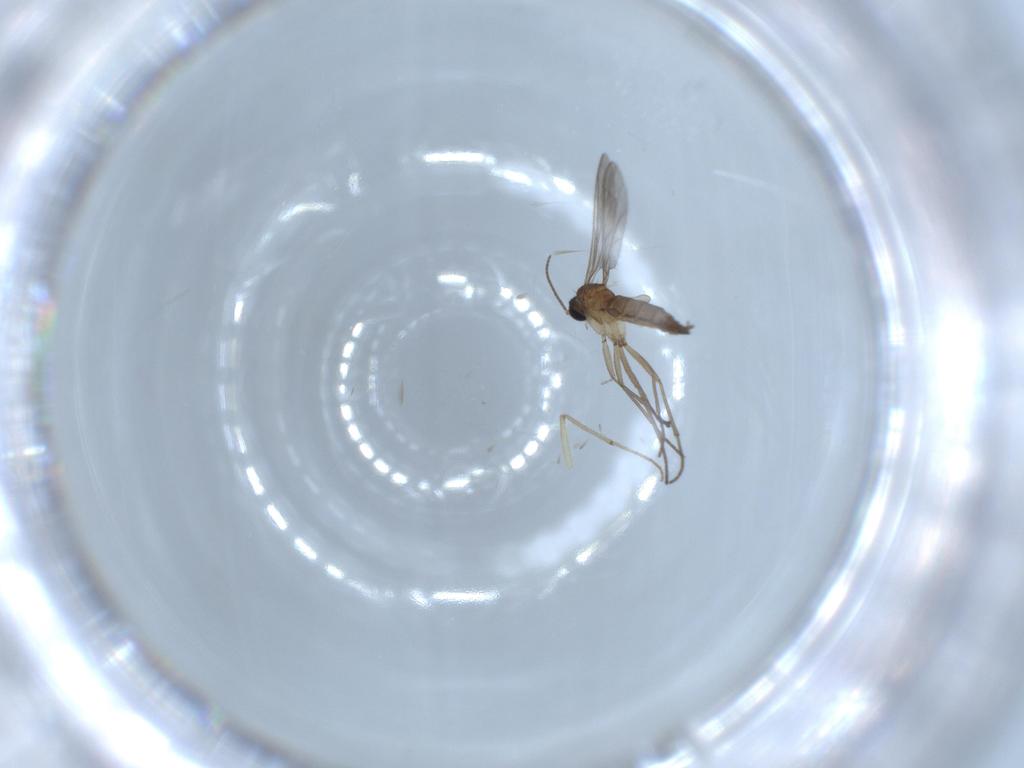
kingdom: Animalia
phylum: Arthropoda
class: Insecta
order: Diptera
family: Sciaridae
